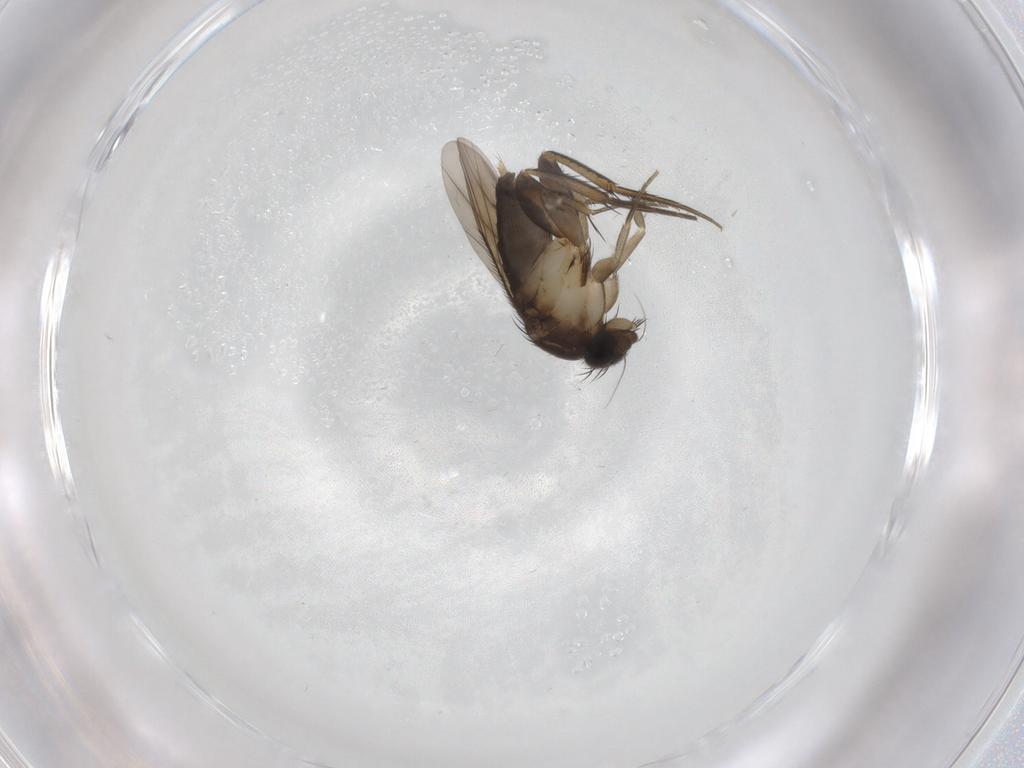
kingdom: Animalia
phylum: Arthropoda
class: Insecta
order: Diptera
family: Phoridae
